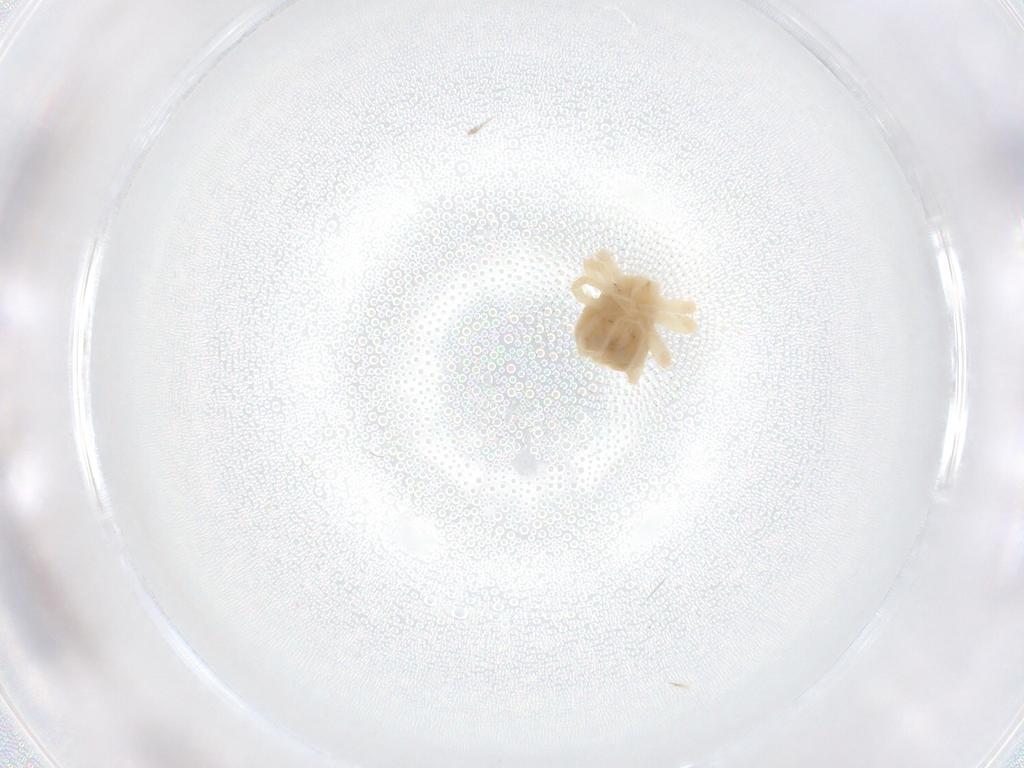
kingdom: Animalia
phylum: Arthropoda
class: Arachnida
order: Trombidiformes
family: Anystidae
